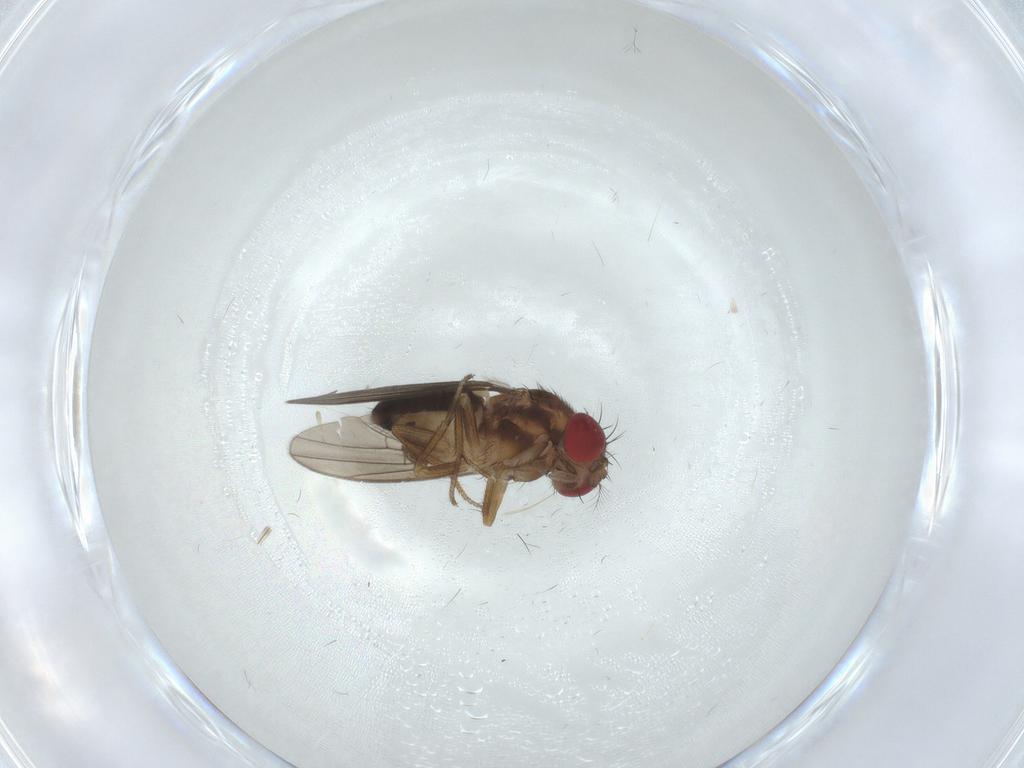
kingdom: Animalia
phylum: Arthropoda
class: Insecta
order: Diptera
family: Drosophilidae
